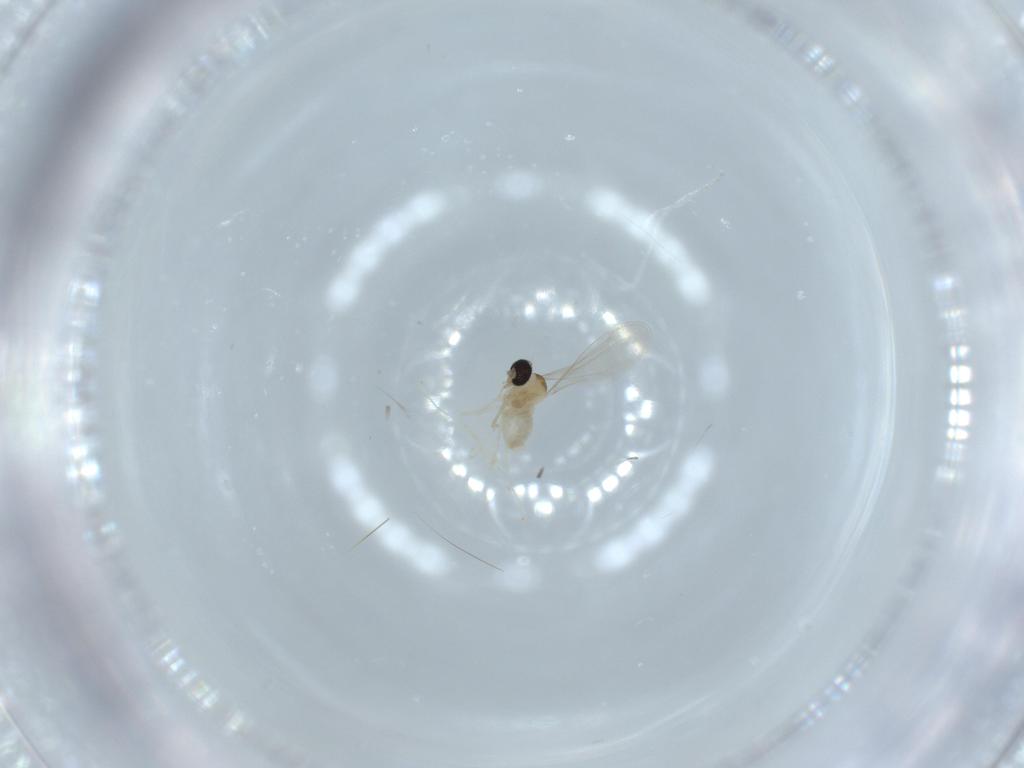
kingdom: Animalia
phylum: Arthropoda
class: Insecta
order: Diptera
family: Cecidomyiidae
